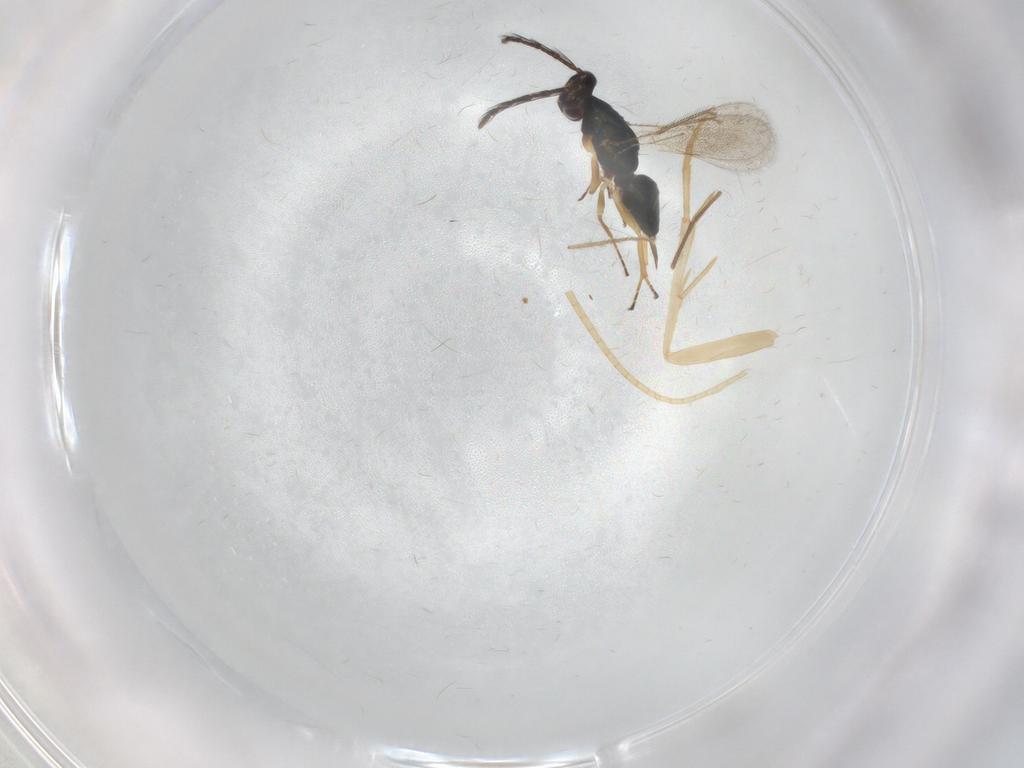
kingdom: Animalia
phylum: Arthropoda
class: Insecta
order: Hymenoptera
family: Eulophidae
